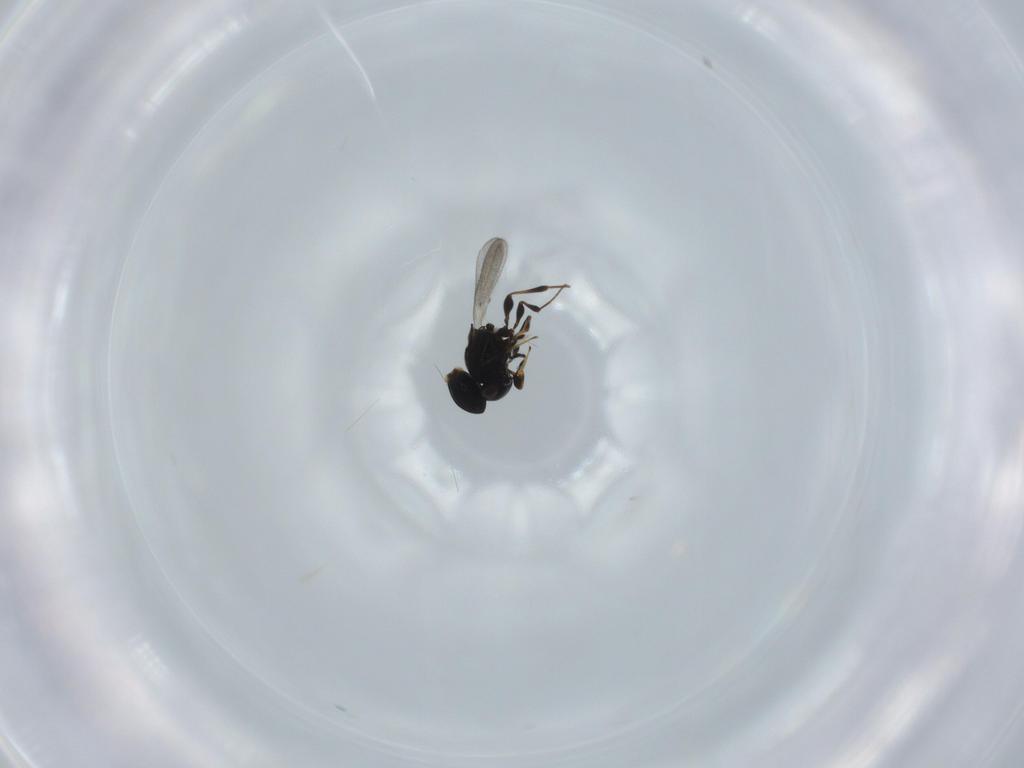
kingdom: Animalia
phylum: Arthropoda
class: Insecta
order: Hymenoptera
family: Platygastridae
